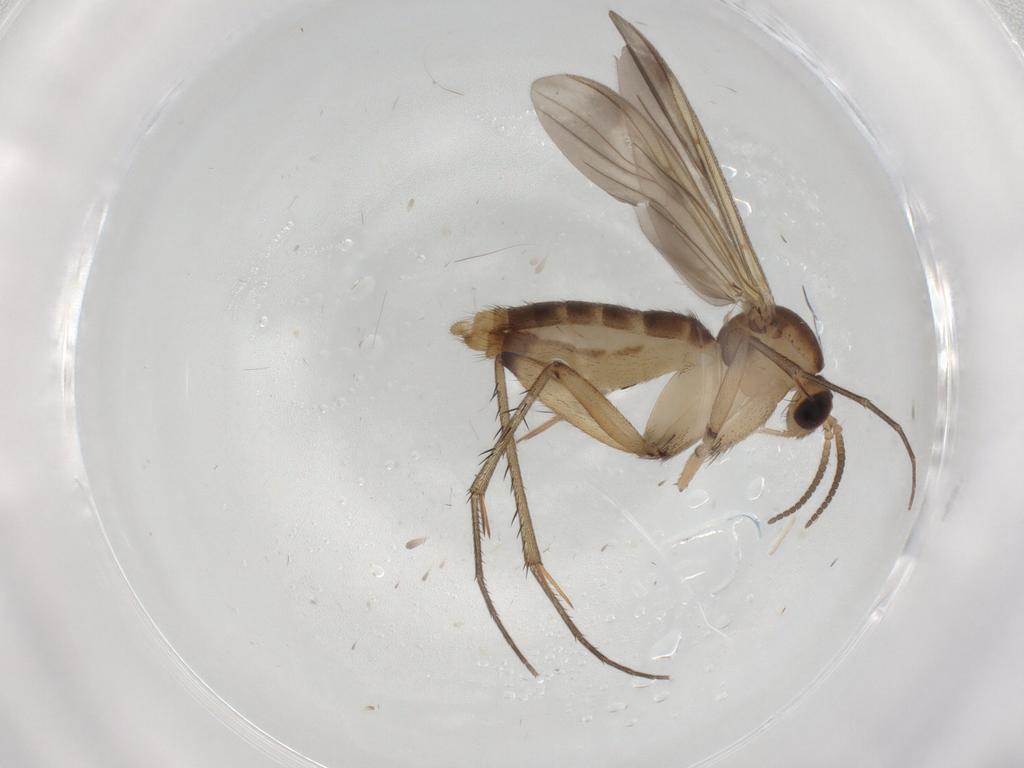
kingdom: Animalia
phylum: Arthropoda
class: Insecta
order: Diptera
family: Mycetophilidae
